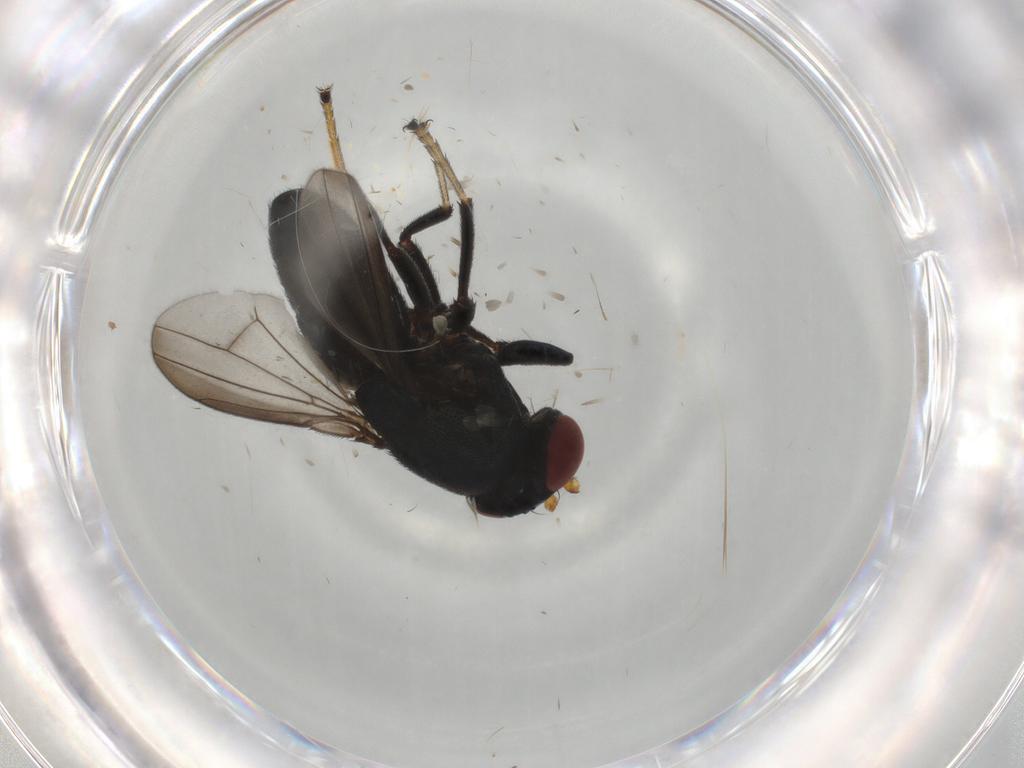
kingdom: Animalia
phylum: Arthropoda
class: Insecta
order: Diptera
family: Ephydridae
